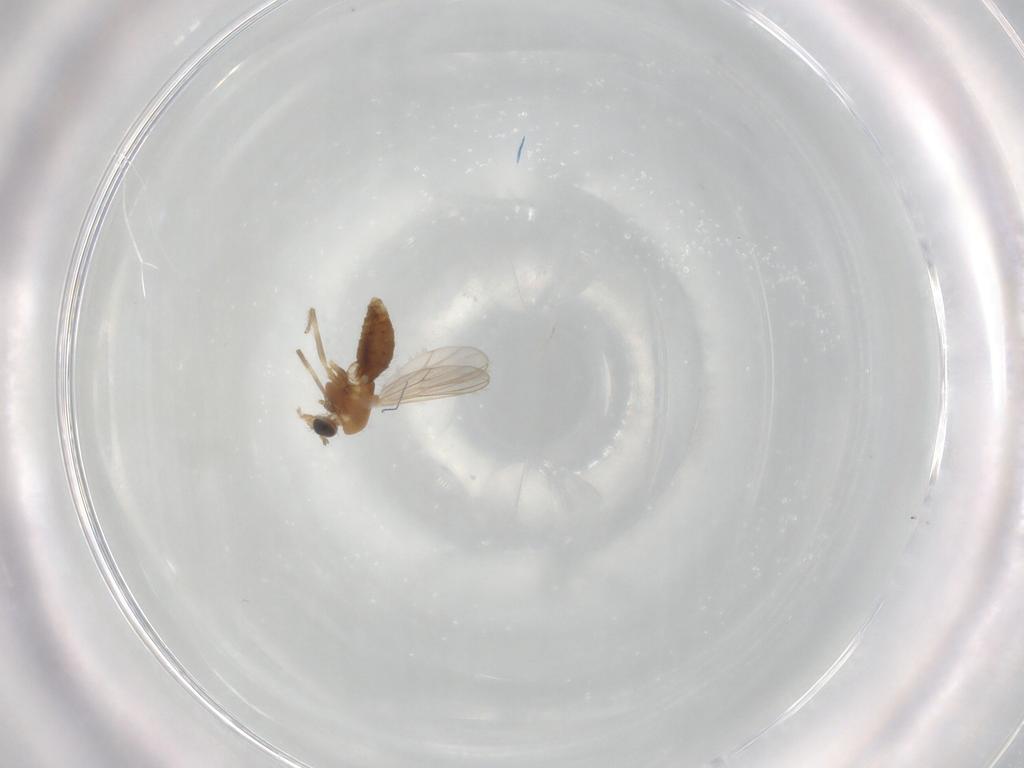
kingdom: Animalia
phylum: Arthropoda
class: Insecta
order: Diptera
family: Chironomidae
